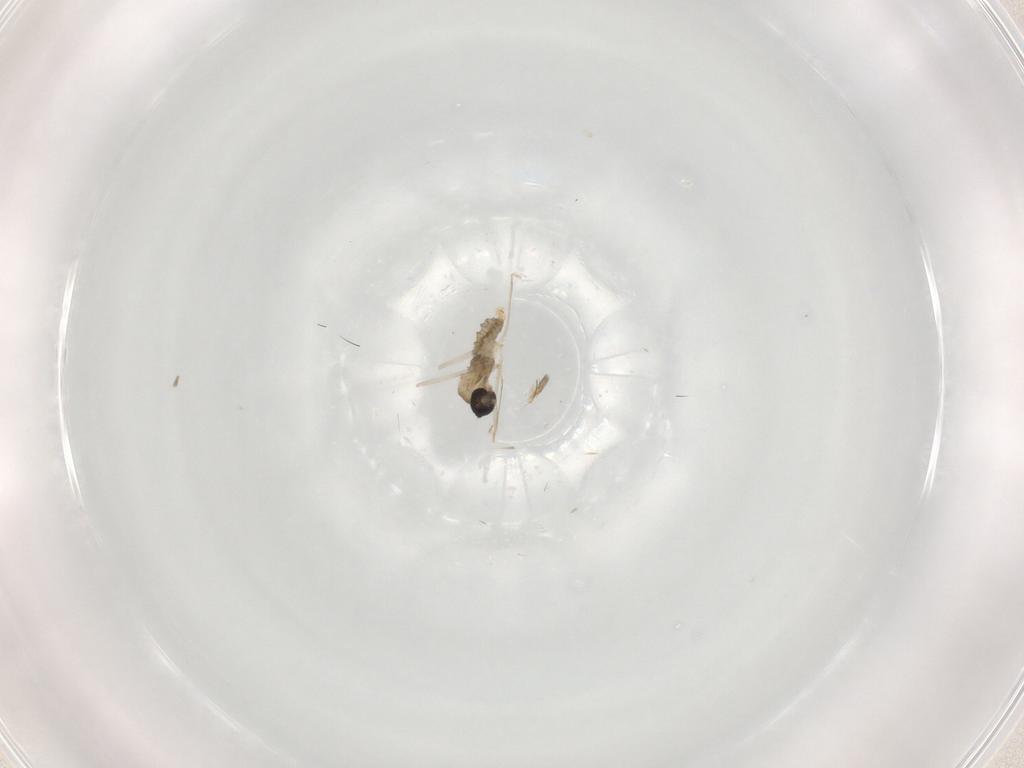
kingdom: Animalia
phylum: Arthropoda
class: Insecta
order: Diptera
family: Cecidomyiidae
